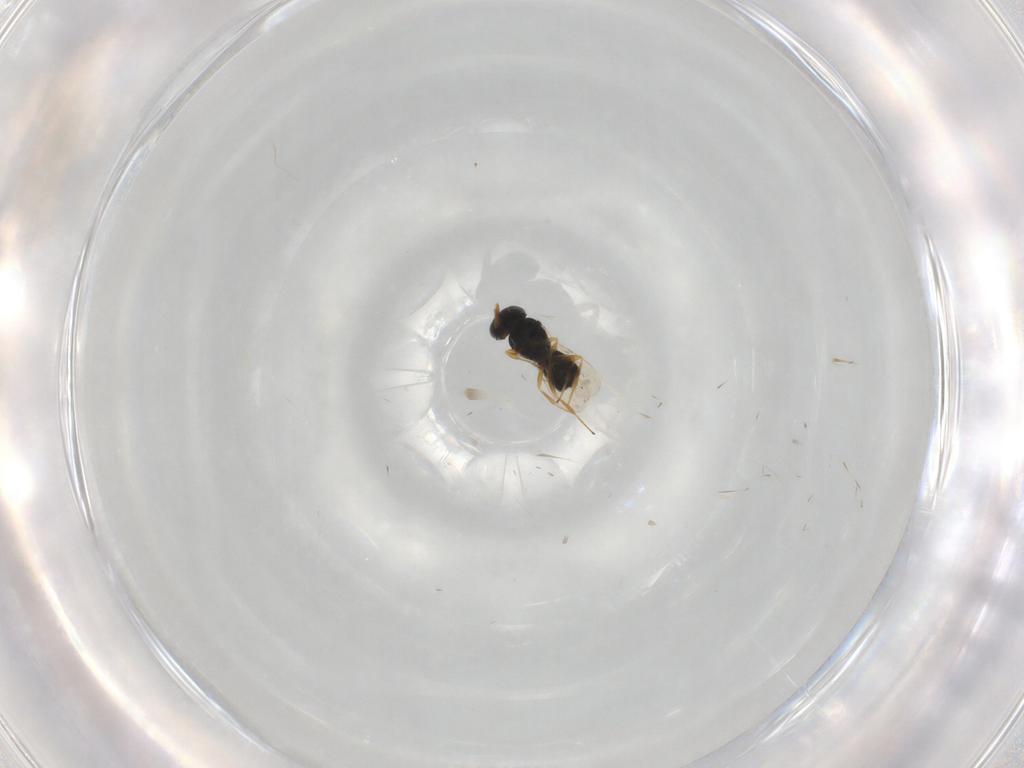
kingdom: Animalia
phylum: Arthropoda
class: Insecta
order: Hymenoptera
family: Scelionidae
